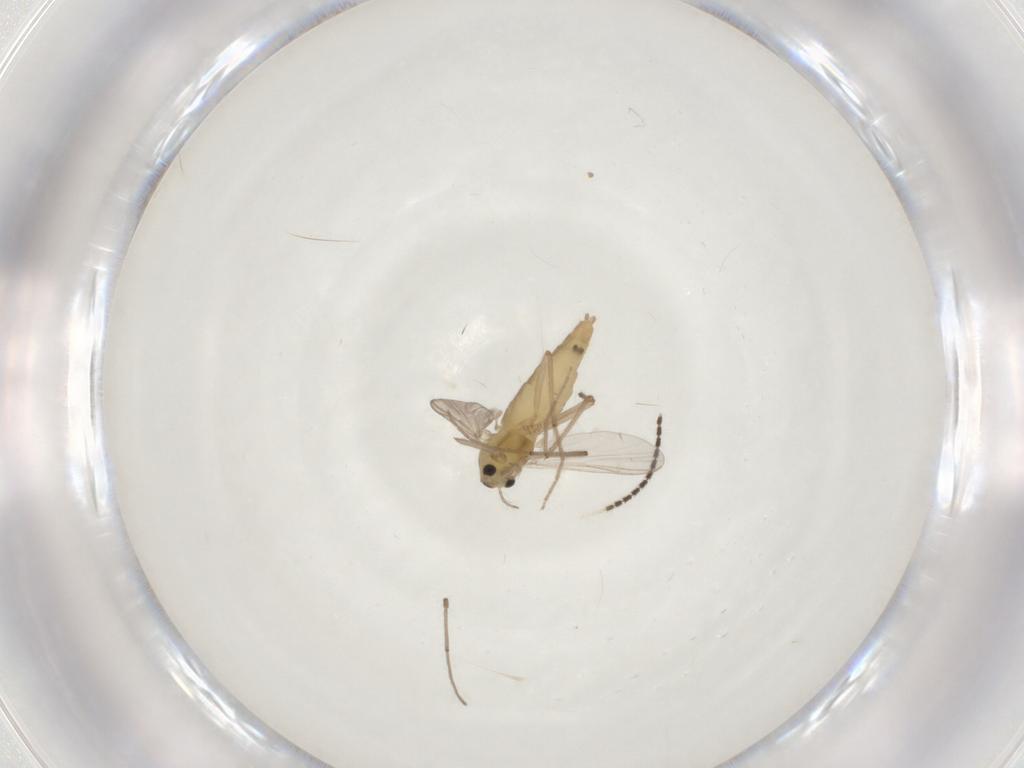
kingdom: Animalia
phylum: Arthropoda
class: Insecta
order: Diptera
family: Chironomidae
